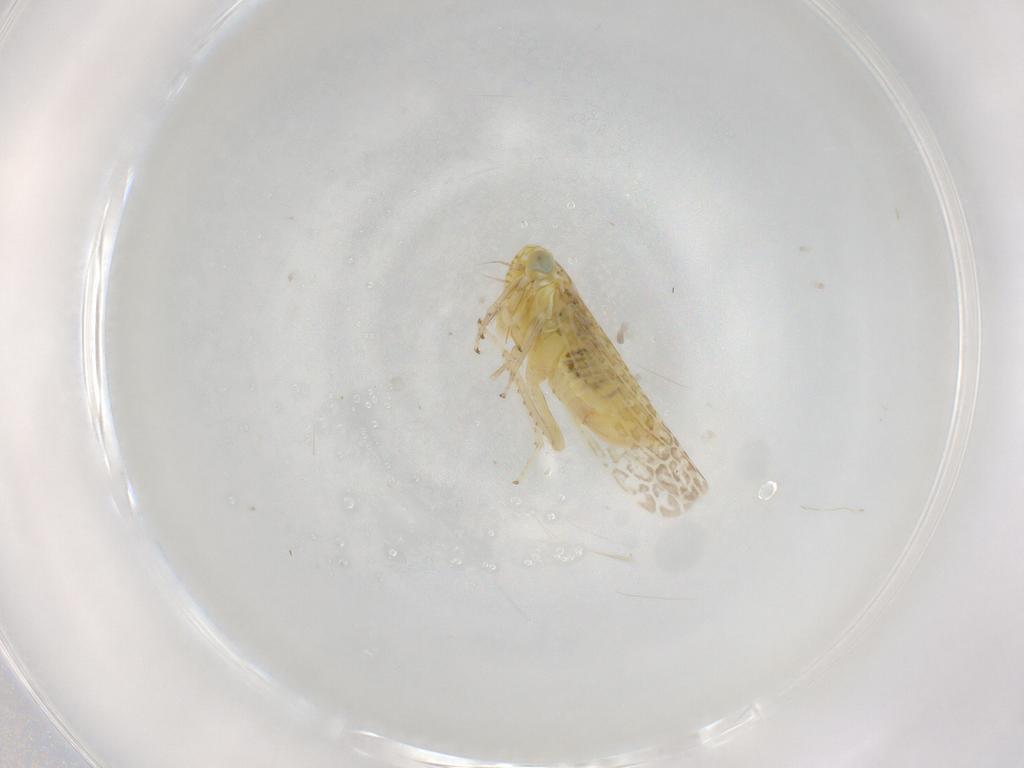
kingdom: Animalia
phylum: Arthropoda
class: Insecta
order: Hemiptera
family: Cicadellidae
